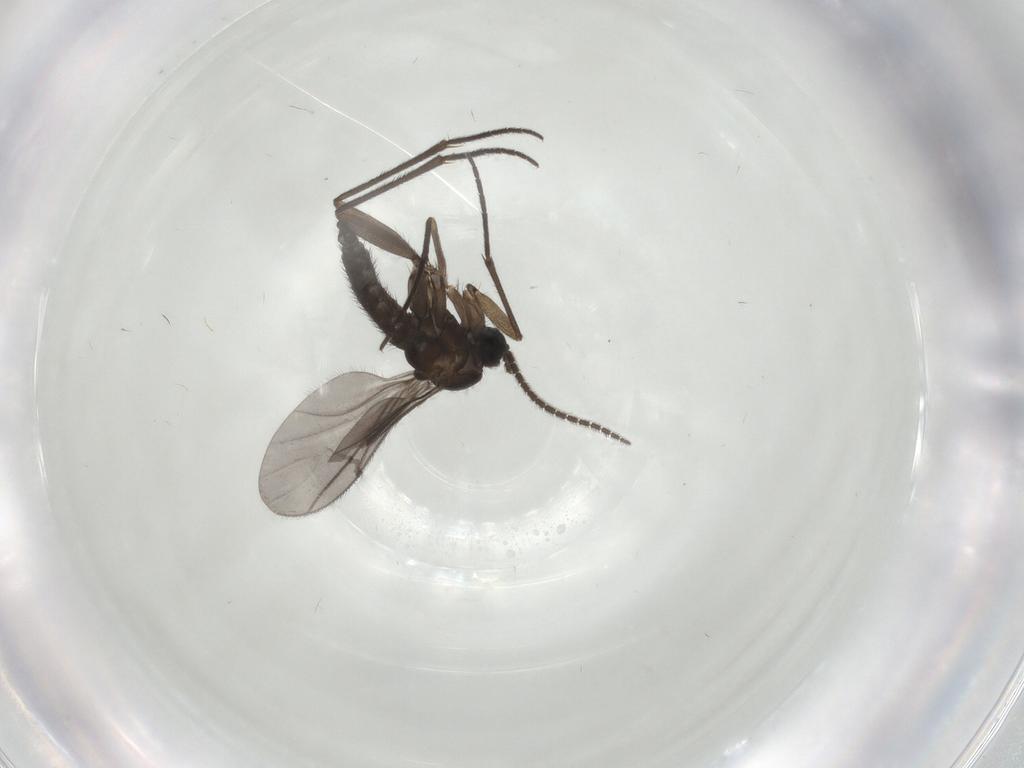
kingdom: Animalia
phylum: Arthropoda
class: Insecta
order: Diptera
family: Sciaridae
